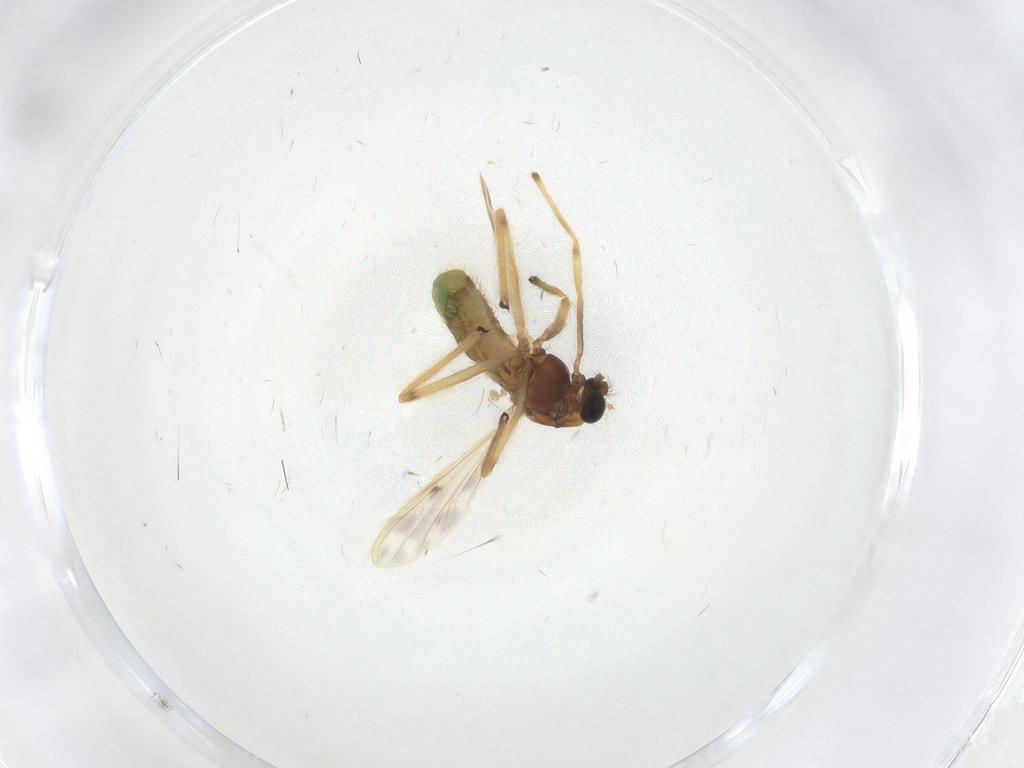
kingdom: Animalia
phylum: Arthropoda
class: Insecta
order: Diptera
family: Chironomidae
